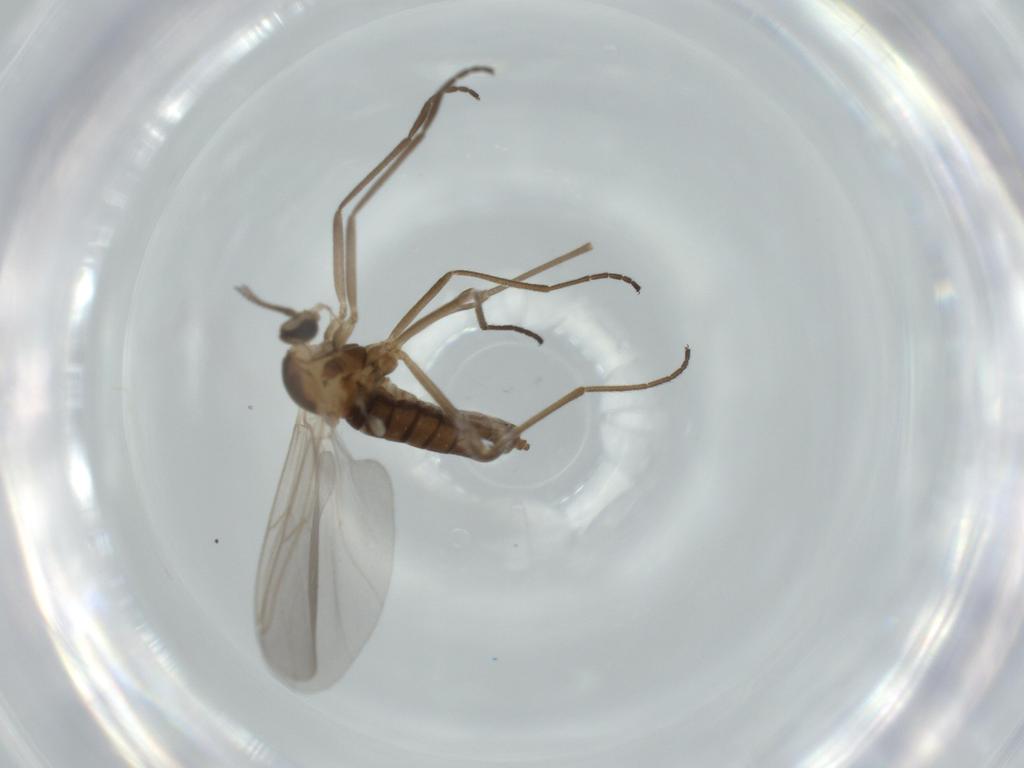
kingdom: Animalia
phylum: Arthropoda
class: Insecta
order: Diptera
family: Cecidomyiidae
